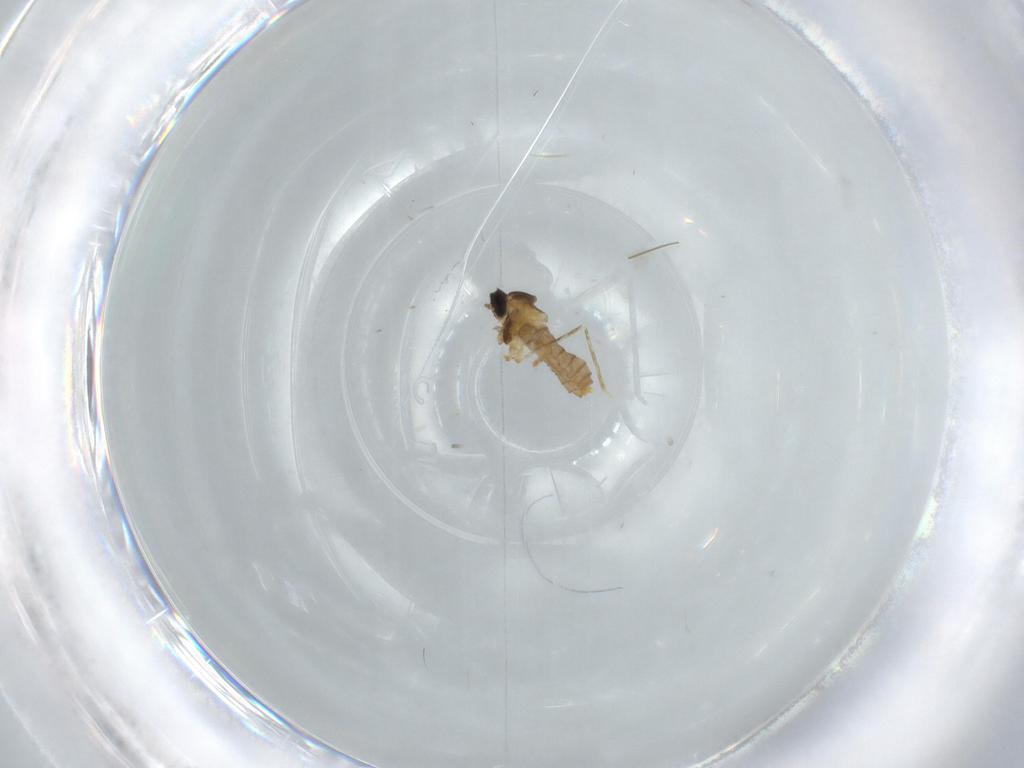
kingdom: Animalia
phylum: Arthropoda
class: Insecta
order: Diptera
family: Cecidomyiidae
